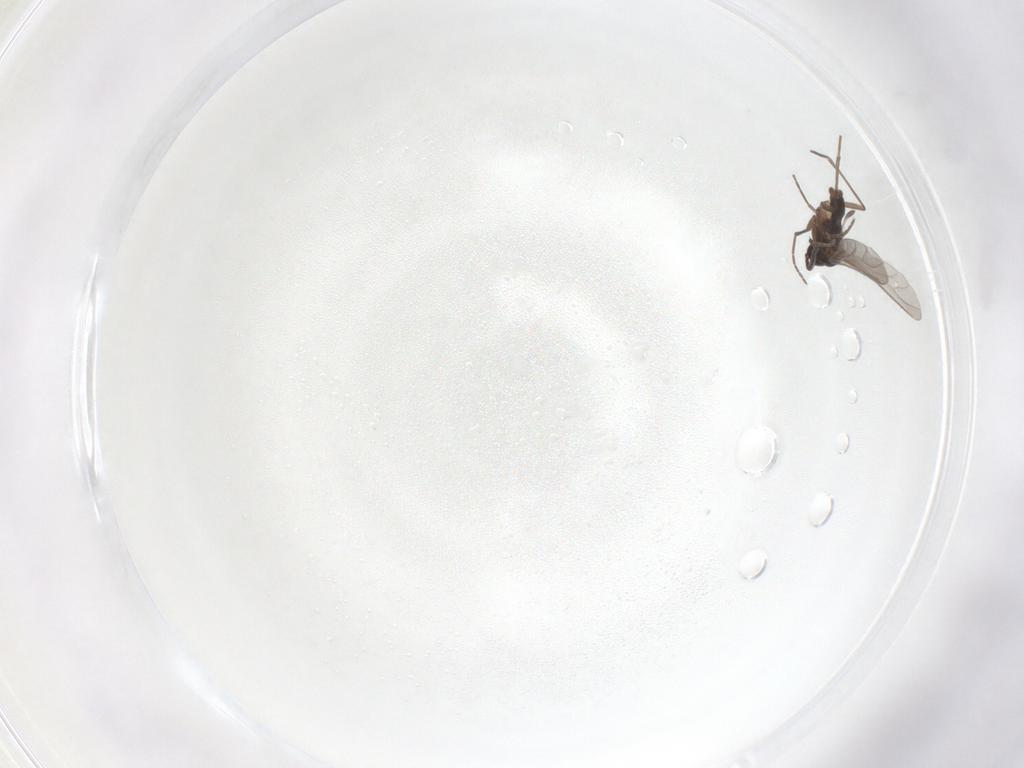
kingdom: Animalia
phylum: Arthropoda
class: Insecta
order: Diptera
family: Sciaridae
